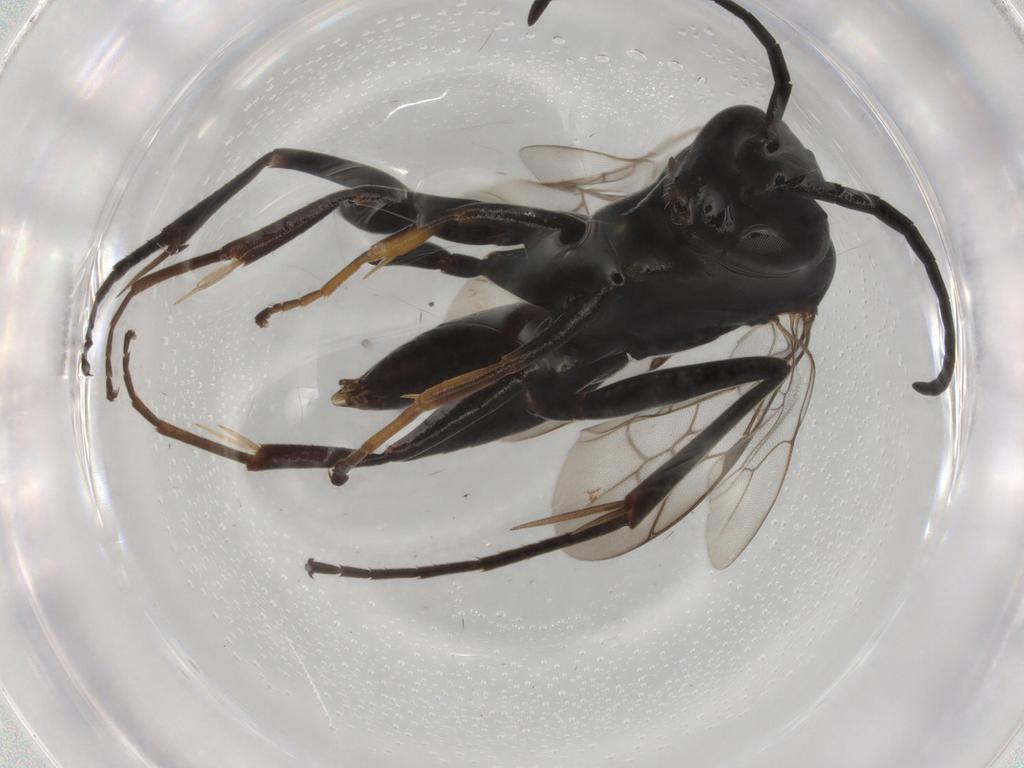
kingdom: Animalia
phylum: Arthropoda
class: Insecta
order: Hymenoptera
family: Scelionidae
